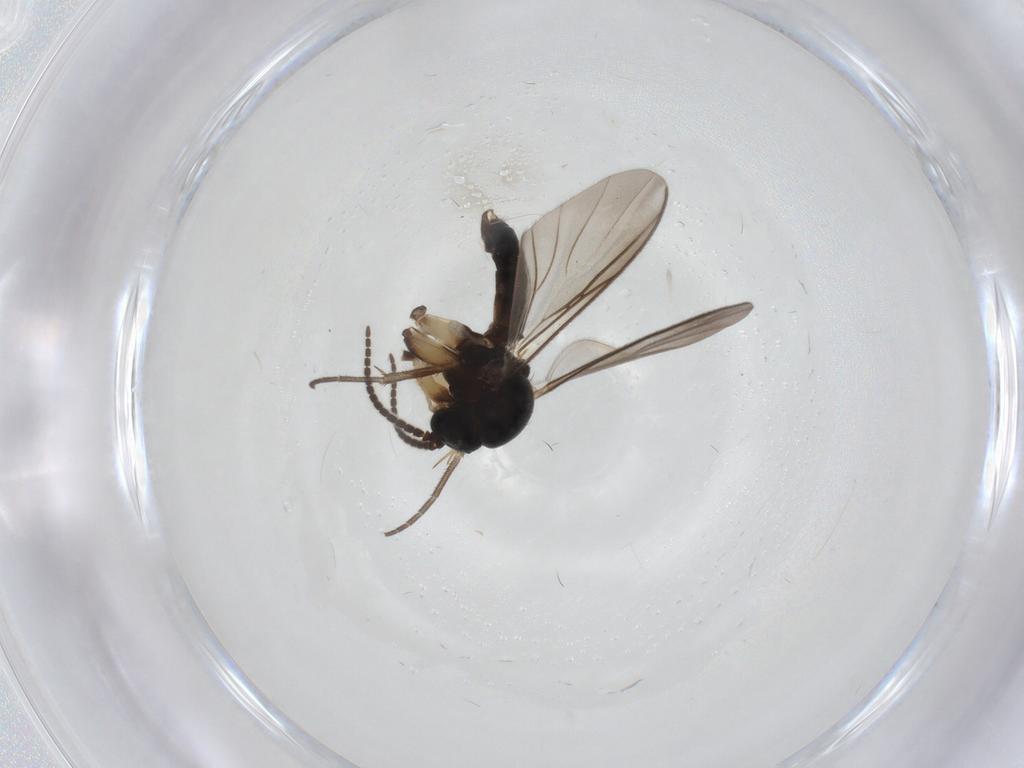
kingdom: Animalia
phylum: Arthropoda
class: Insecta
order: Diptera
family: Mycetophilidae
